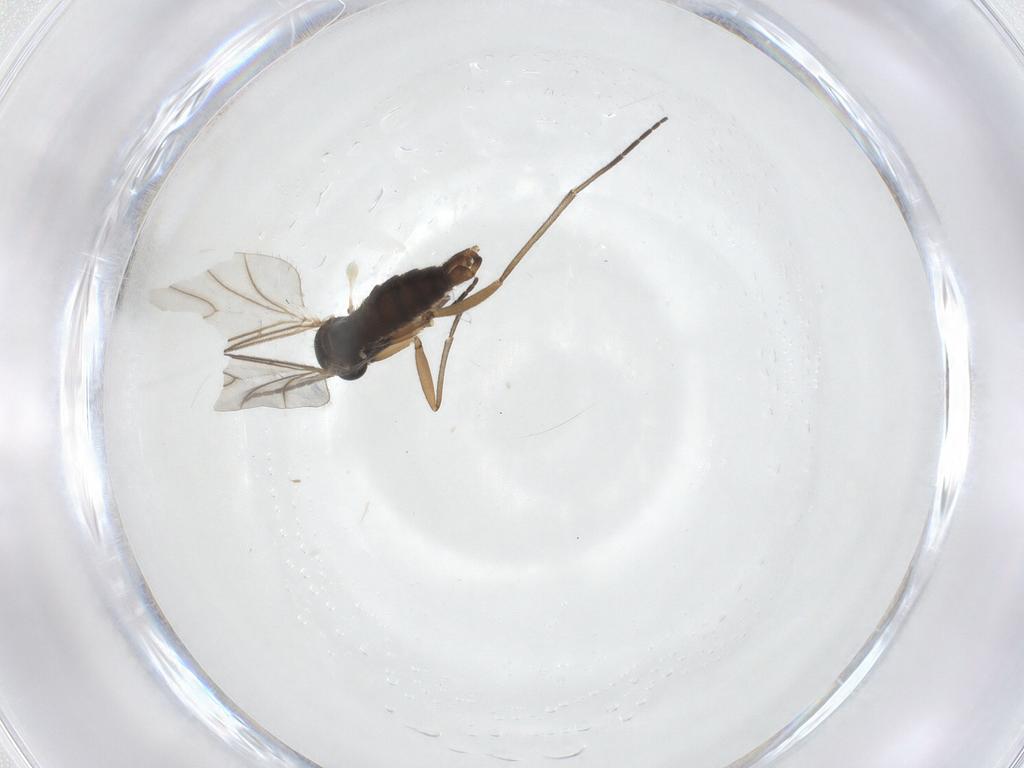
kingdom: Animalia
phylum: Arthropoda
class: Insecta
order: Diptera
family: Sciaridae
